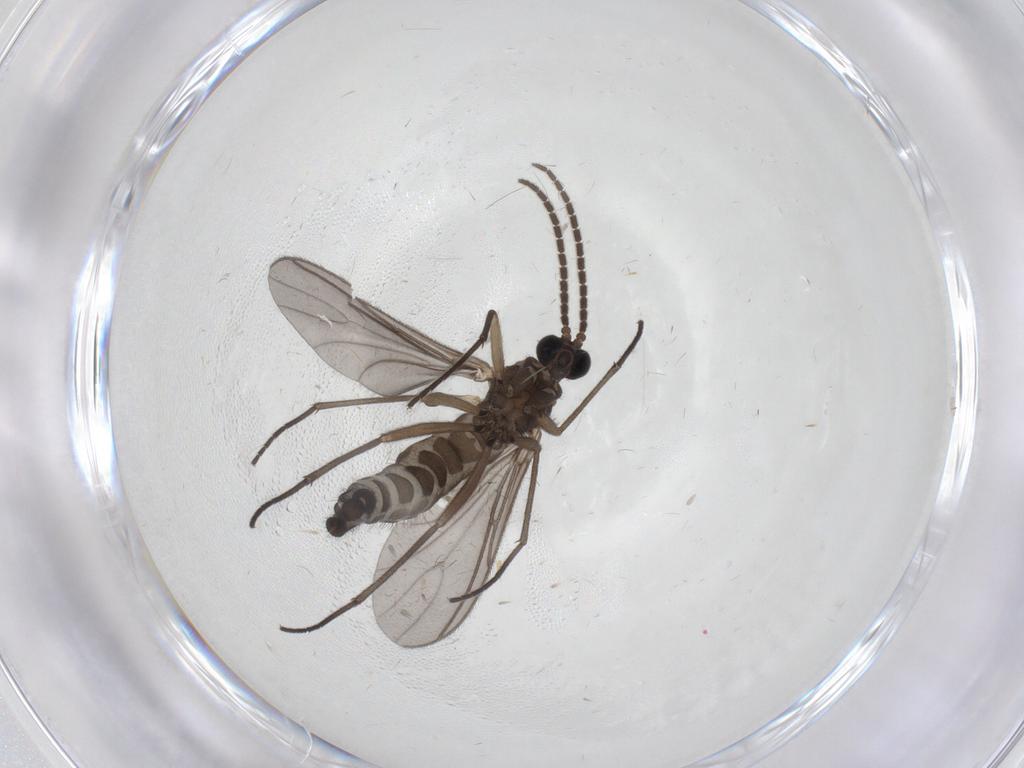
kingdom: Animalia
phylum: Arthropoda
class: Insecta
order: Diptera
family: Sciaridae
